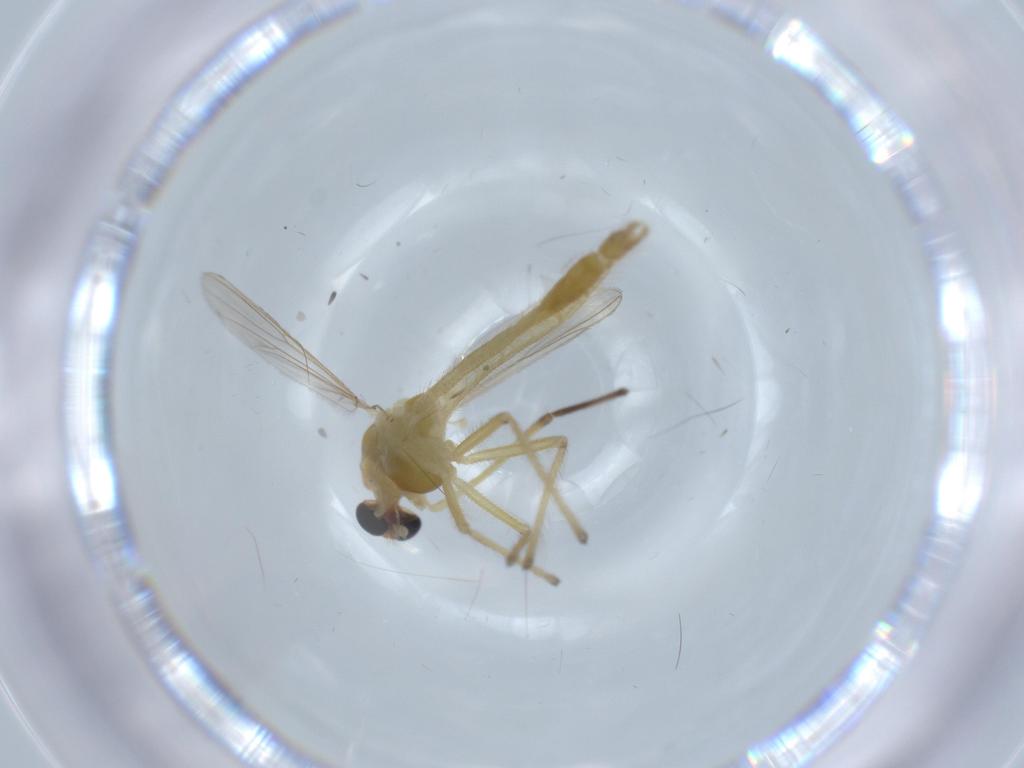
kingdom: Animalia
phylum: Arthropoda
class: Insecta
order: Diptera
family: Chironomidae
